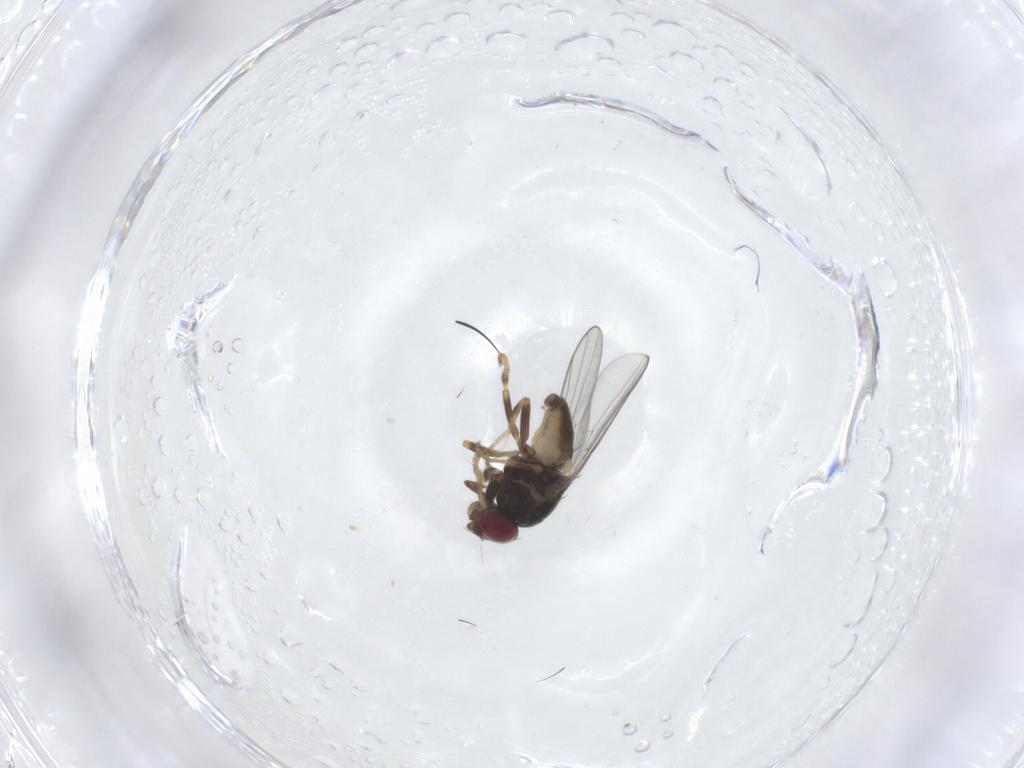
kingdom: Animalia
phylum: Arthropoda
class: Insecta
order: Diptera
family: Chloropidae
